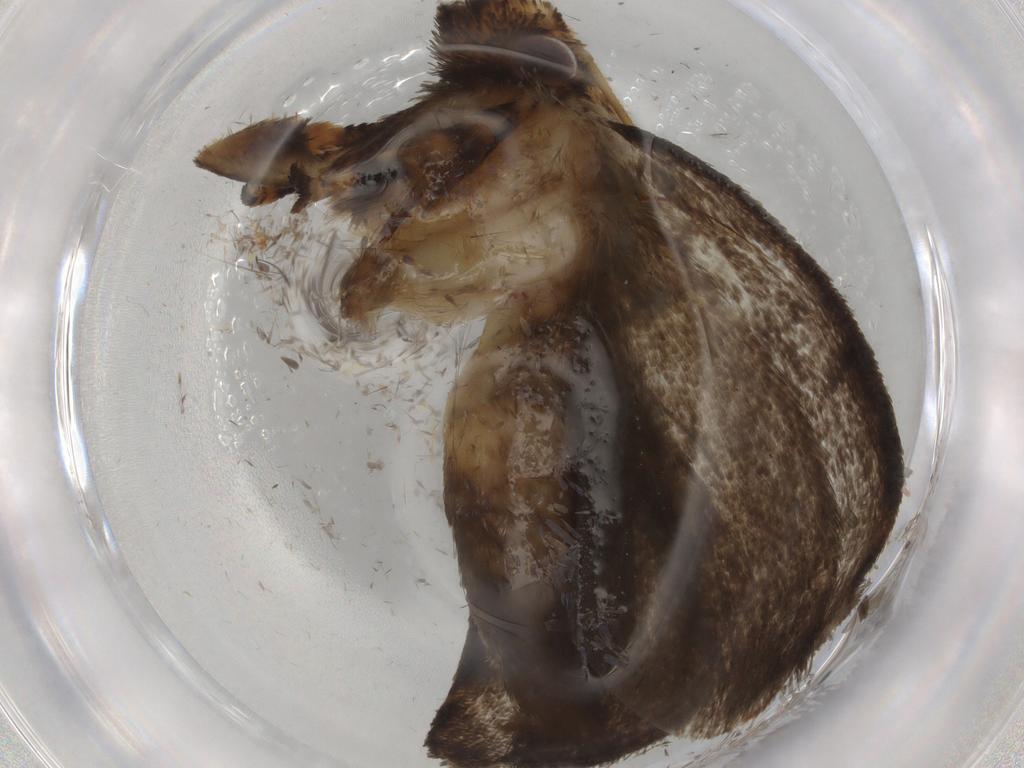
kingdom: Animalia
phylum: Arthropoda
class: Insecta
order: Lepidoptera
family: Tineidae
